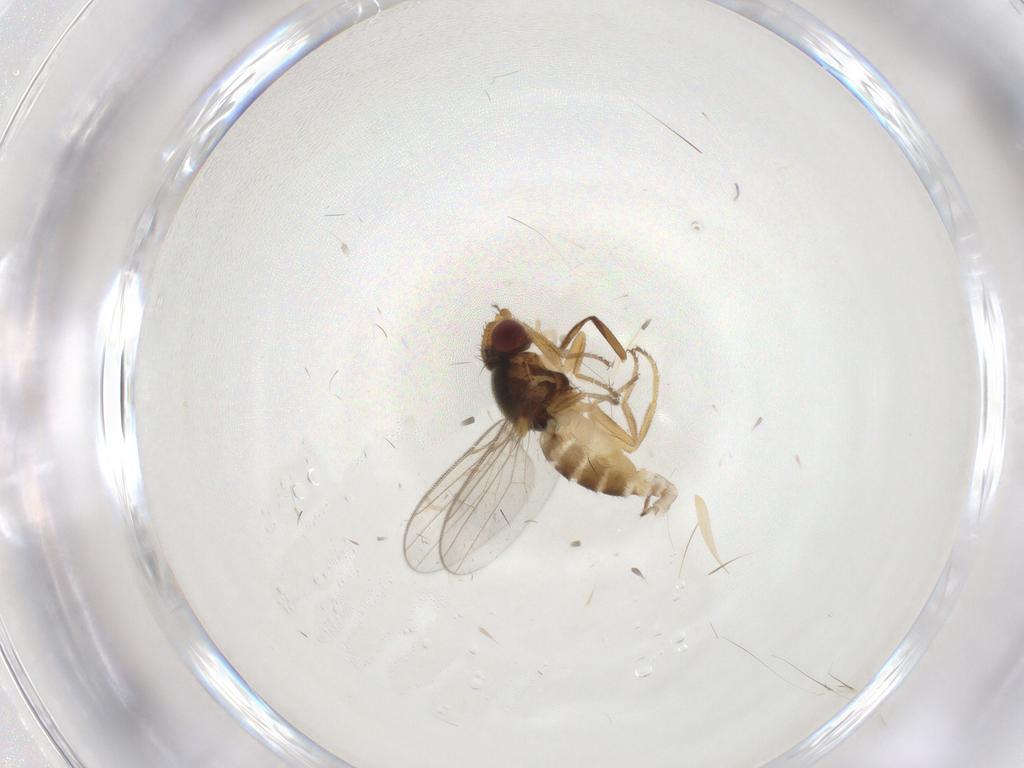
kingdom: Animalia
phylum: Arthropoda
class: Insecta
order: Diptera
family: Chloropidae
